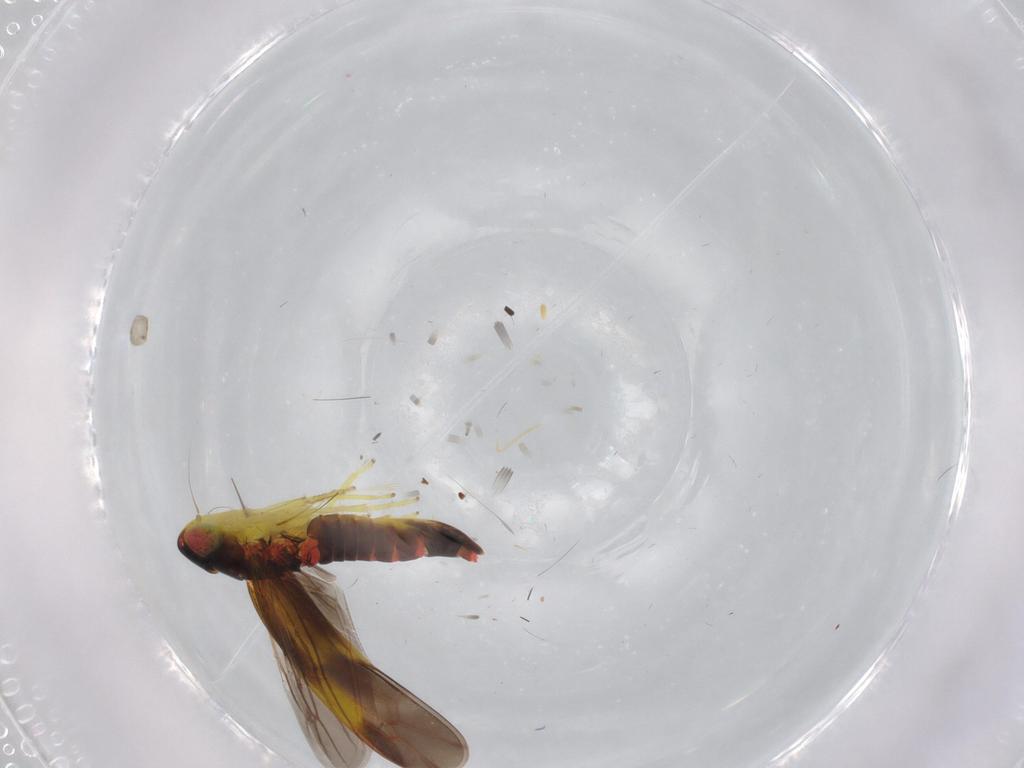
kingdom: Animalia
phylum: Arthropoda
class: Insecta
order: Hemiptera
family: Cicadellidae
